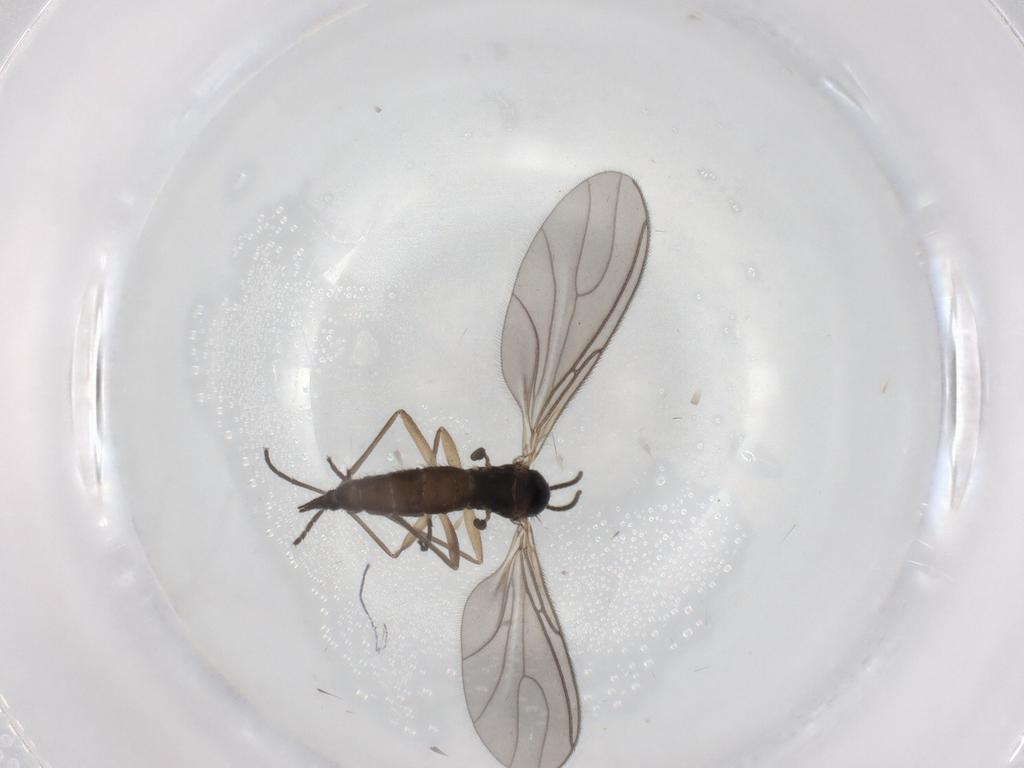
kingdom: Animalia
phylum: Arthropoda
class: Insecta
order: Diptera
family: Sciaridae
